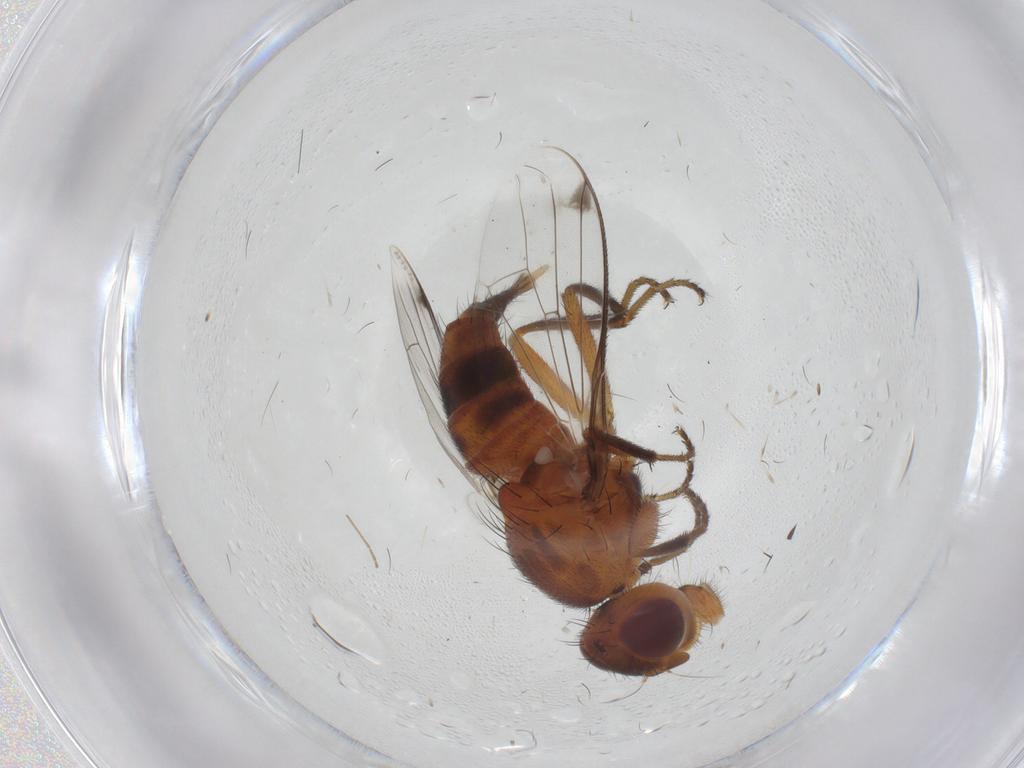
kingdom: Animalia
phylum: Arthropoda
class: Insecta
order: Diptera
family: Richardiidae
